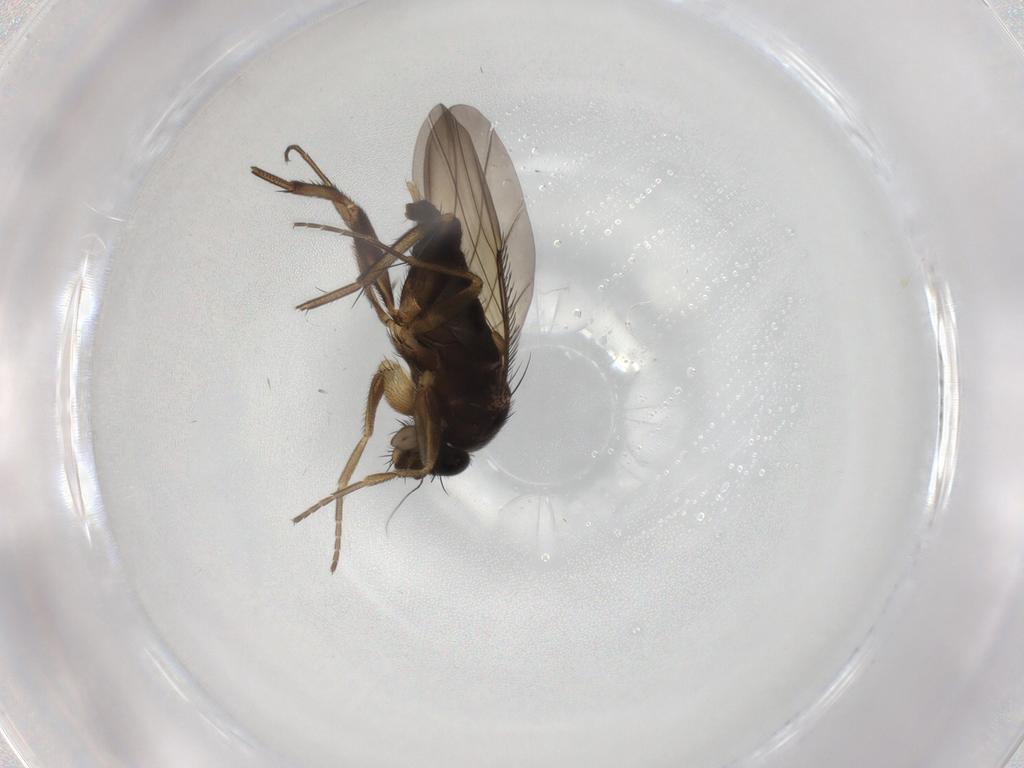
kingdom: Animalia
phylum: Arthropoda
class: Insecta
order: Diptera
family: Phoridae
